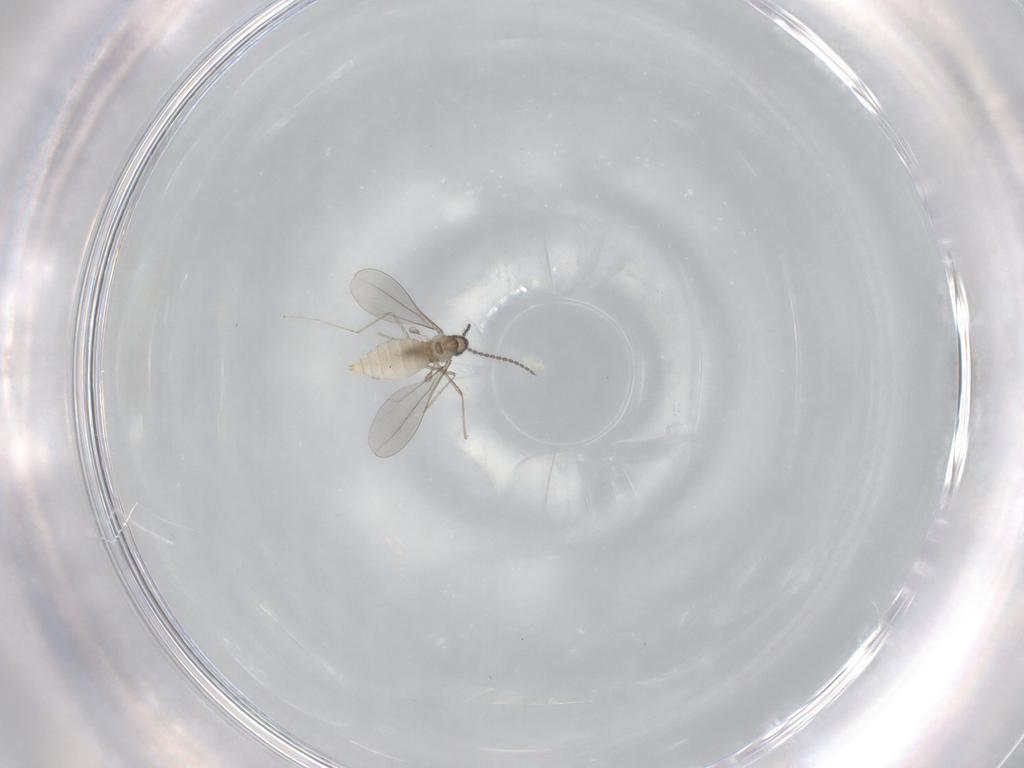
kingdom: Animalia
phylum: Arthropoda
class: Insecta
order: Diptera
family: Cecidomyiidae
